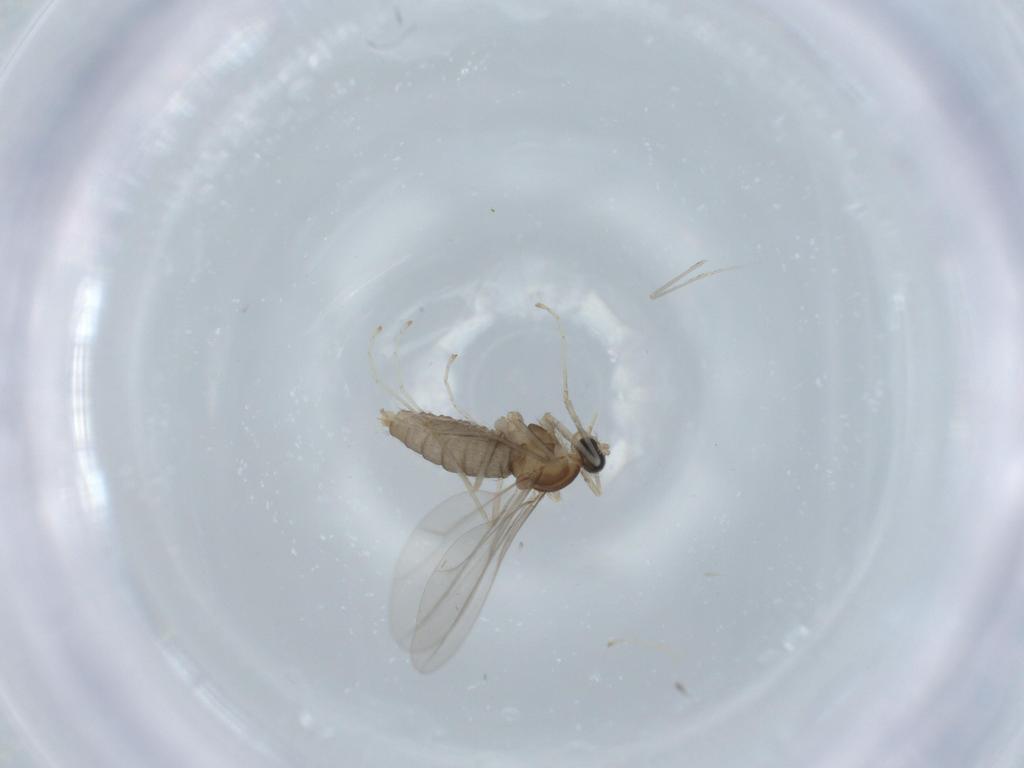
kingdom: Animalia
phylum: Arthropoda
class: Insecta
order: Diptera
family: Cecidomyiidae
